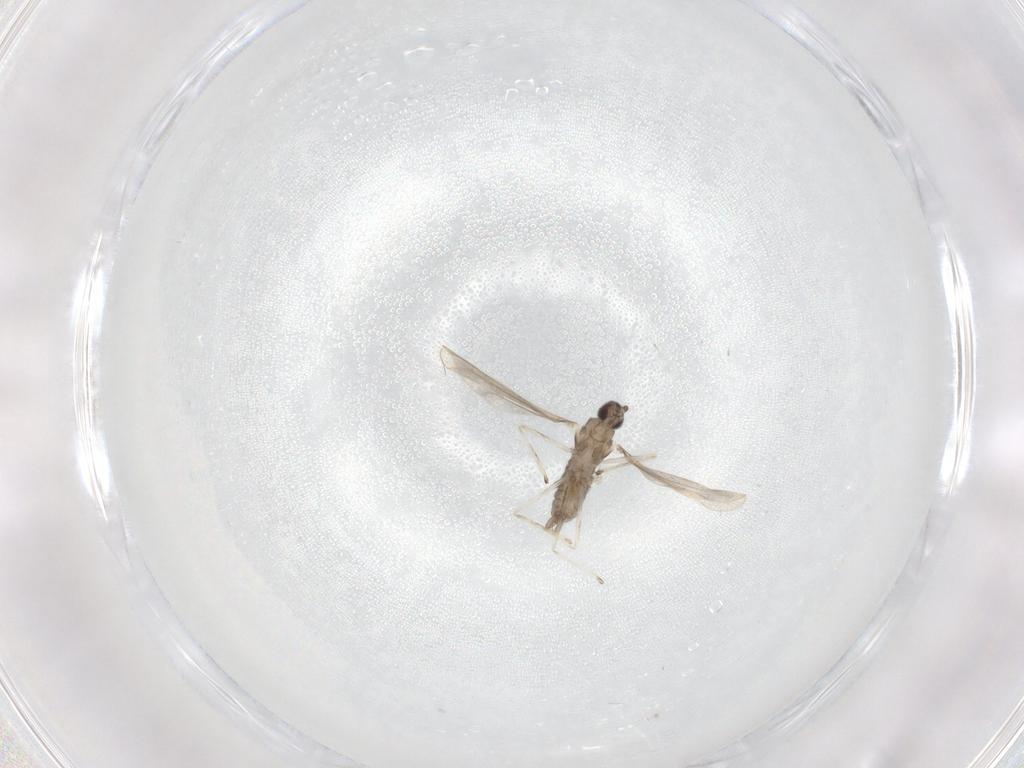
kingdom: Animalia
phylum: Arthropoda
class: Insecta
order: Diptera
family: Cecidomyiidae
